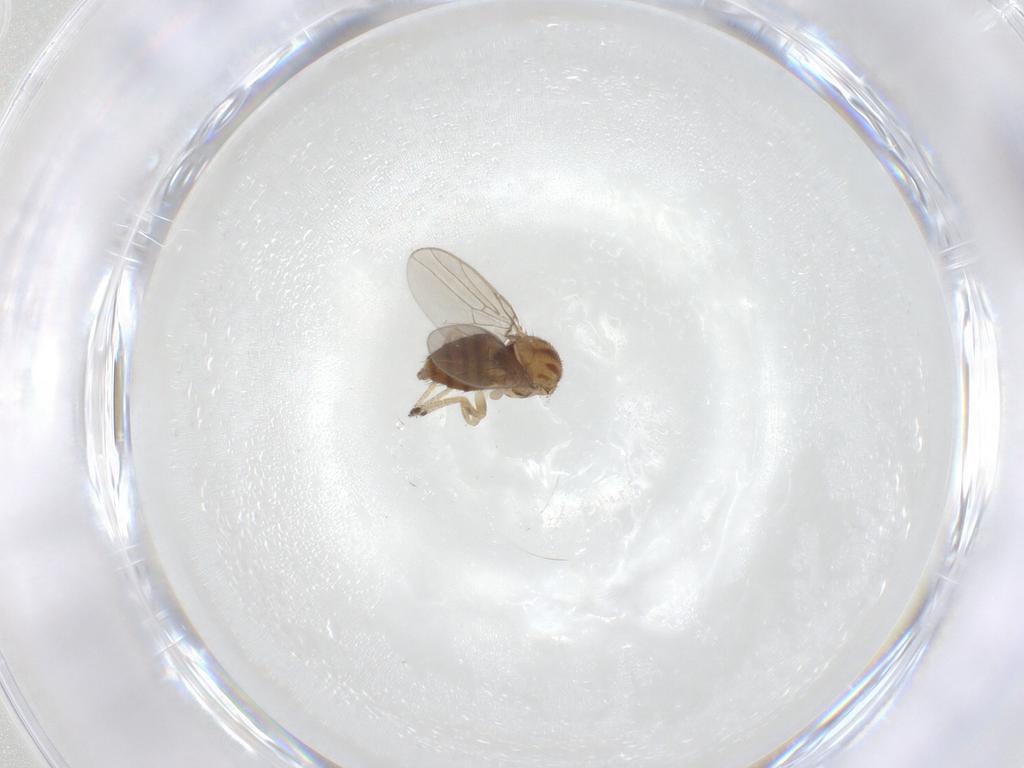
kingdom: Animalia
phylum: Arthropoda
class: Insecta
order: Diptera
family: Chloropidae
